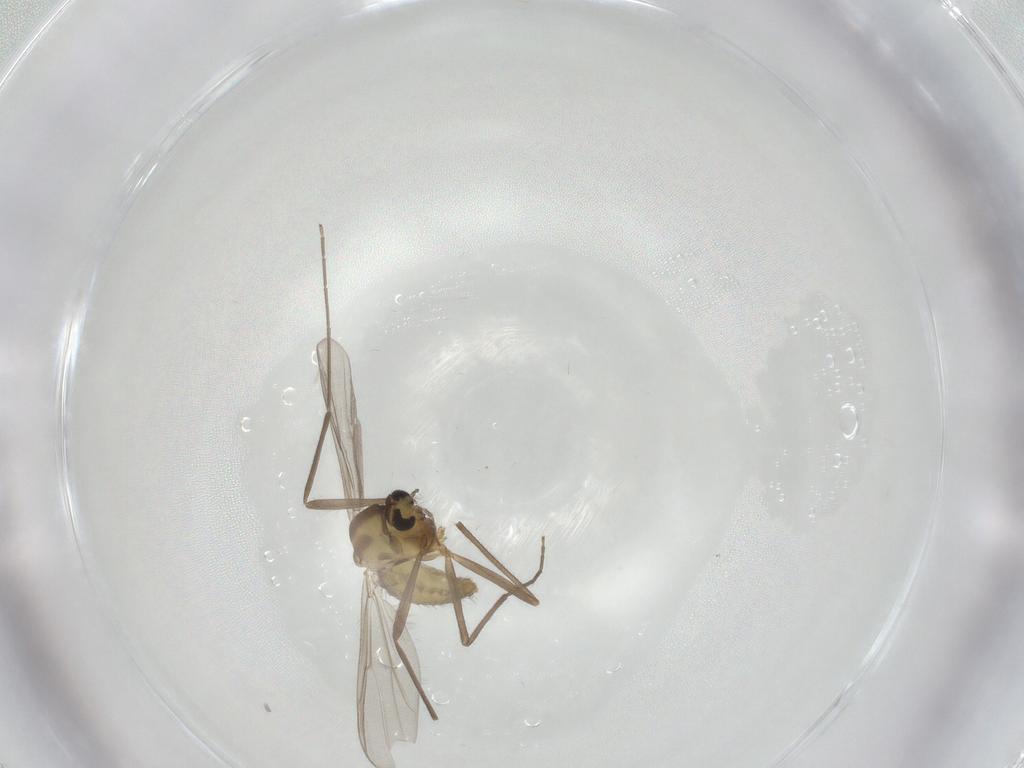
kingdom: Animalia
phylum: Arthropoda
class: Insecta
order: Diptera
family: Chironomidae
